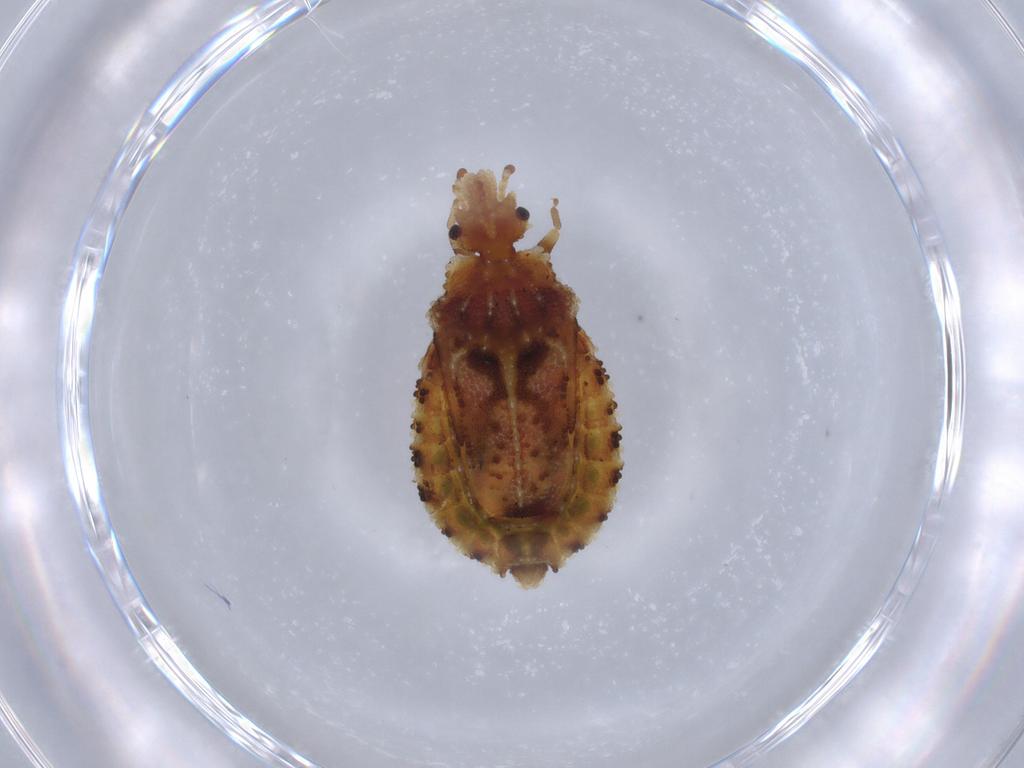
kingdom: Animalia
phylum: Arthropoda
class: Insecta
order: Hemiptera
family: Aradidae
